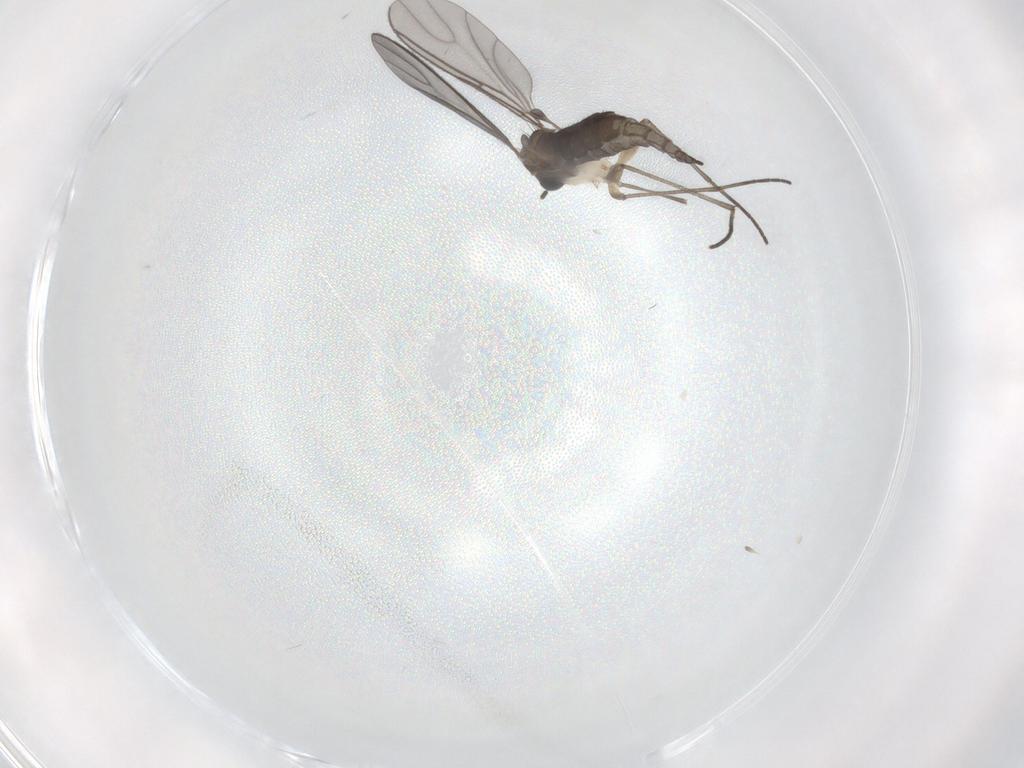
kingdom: Animalia
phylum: Arthropoda
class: Insecta
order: Diptera
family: Sciaridae
